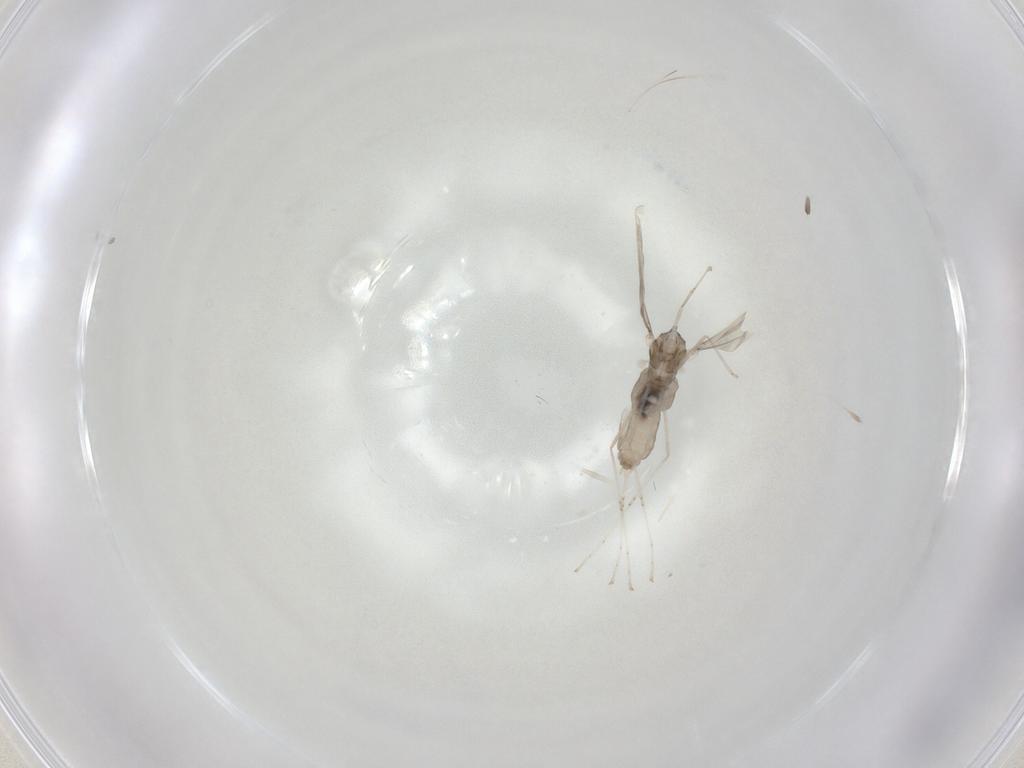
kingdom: Animalia
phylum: Arthropoda
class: Insecta
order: Diptera
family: Cecidomyiidae
